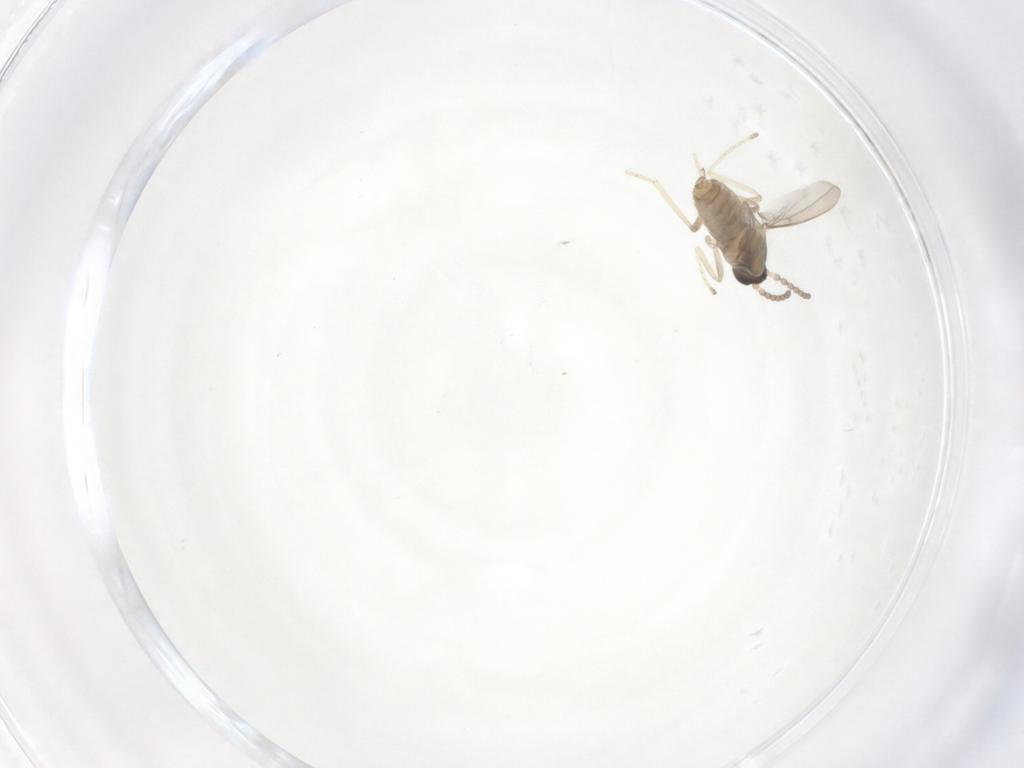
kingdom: Animalia
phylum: Arthropoda
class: Insecta
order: Diptera
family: Cecidomyiidae
